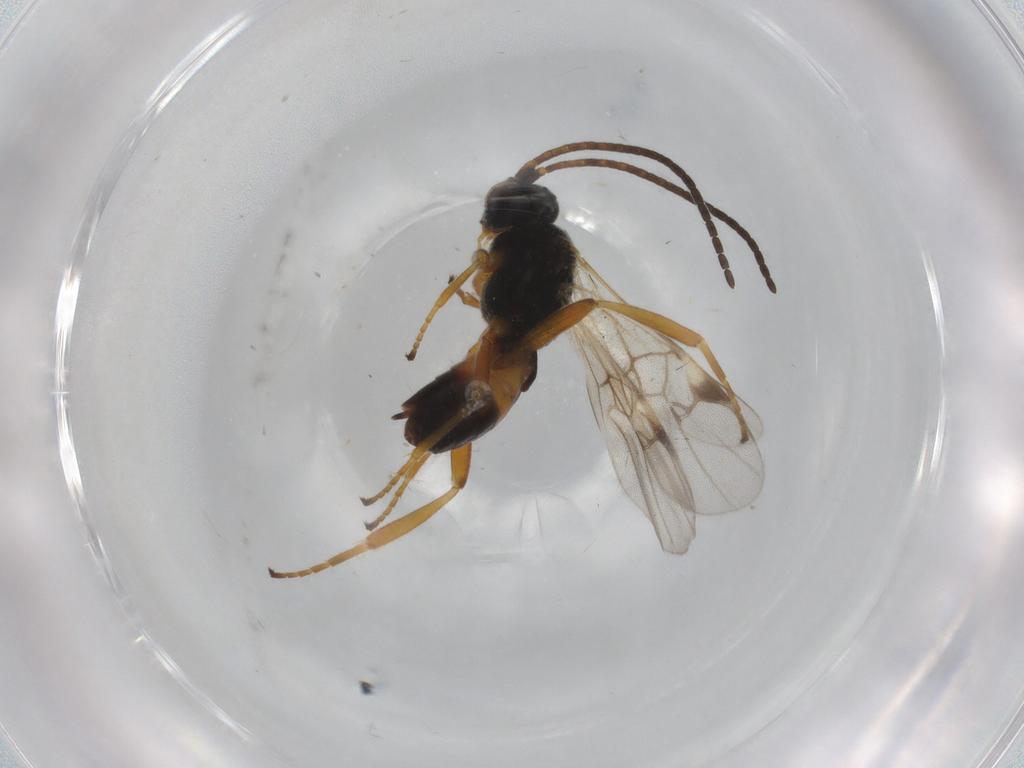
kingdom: Animalia
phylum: Arthropoda
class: Insecta
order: Hymenoptera
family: Braconidae
